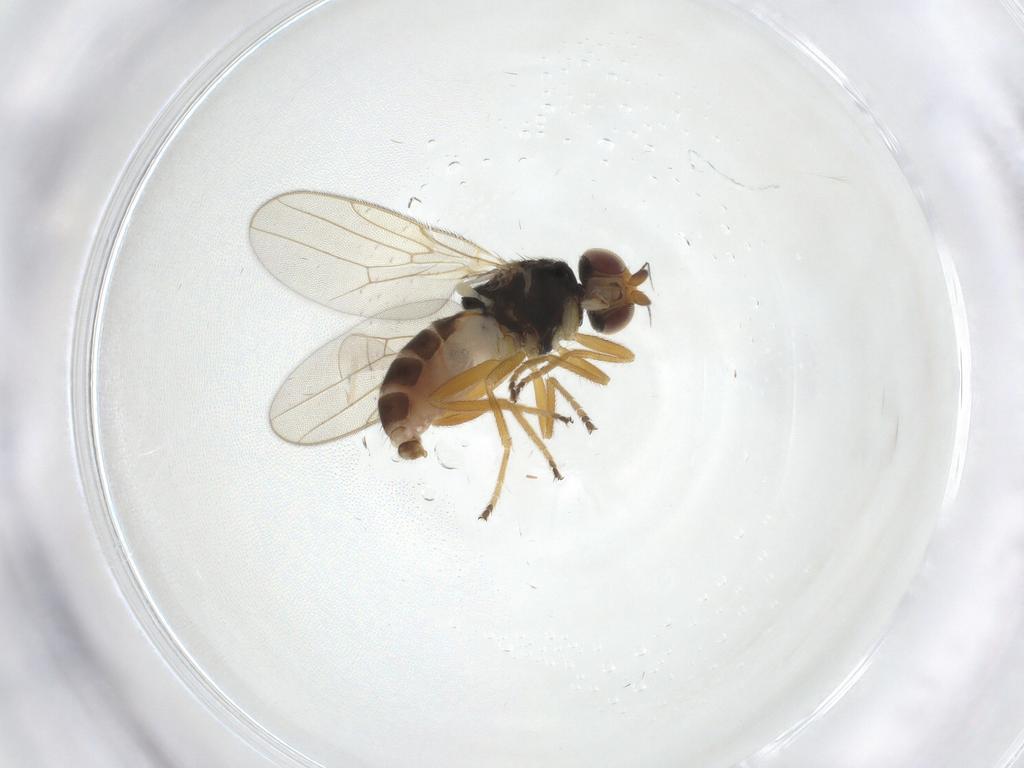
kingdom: Animalia
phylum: Arthropoda
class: Insecta
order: Diptera
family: Chloropidae
